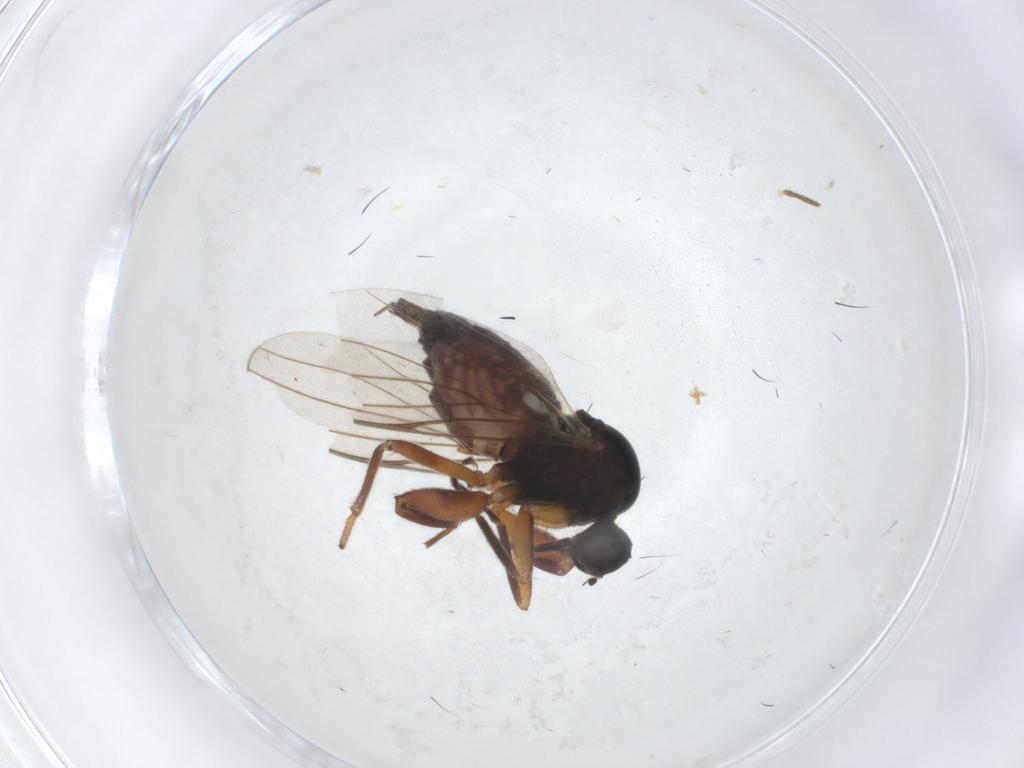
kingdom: Animalia
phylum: Arthropoda
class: Insecta
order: Diptera
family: Hybotidae
